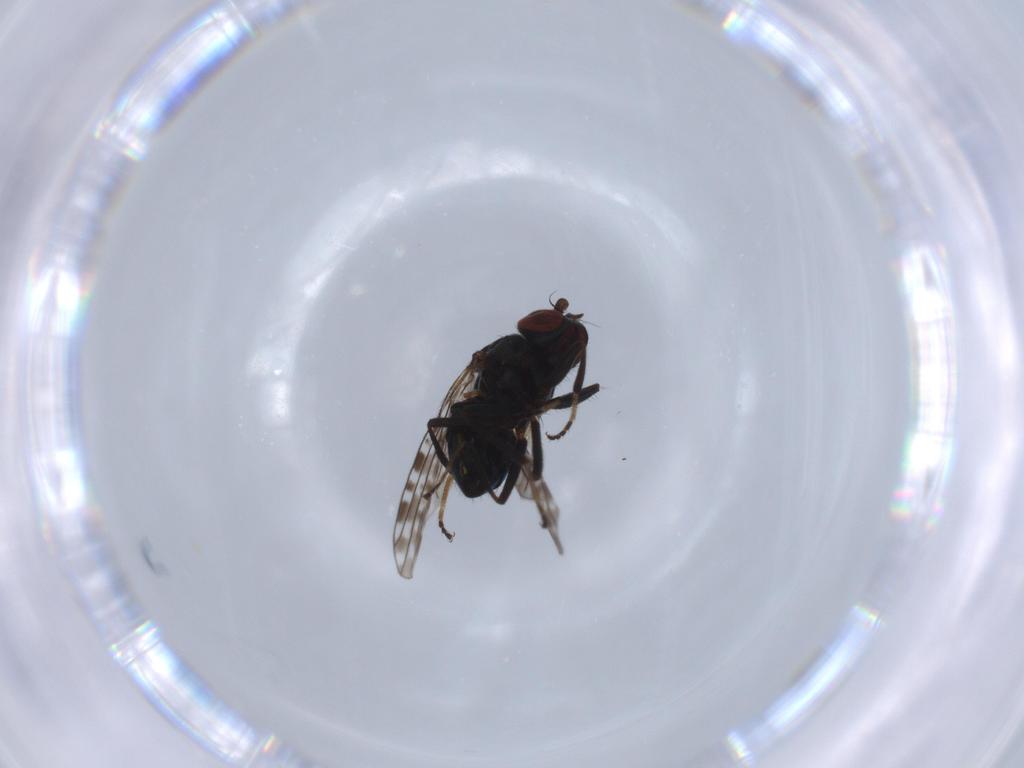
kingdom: Animalia
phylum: Arthropoda
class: Insecta
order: Diptera
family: Ephydridae
